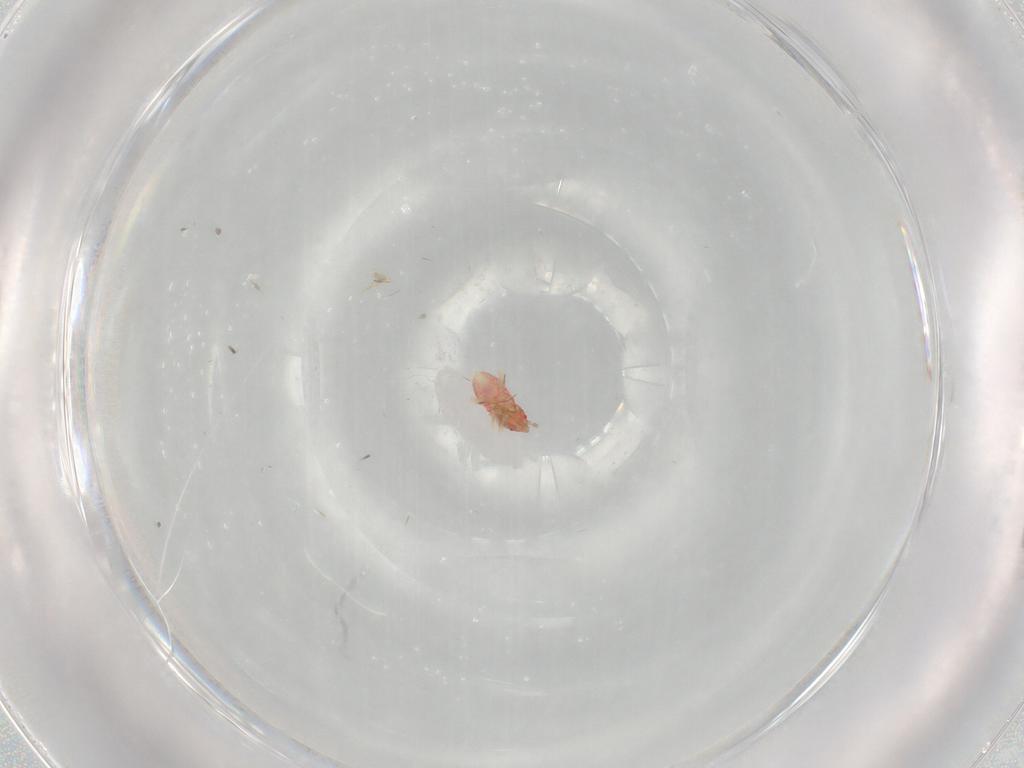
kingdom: Animalia
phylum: Arthropoda
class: Insecta
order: Hemiptera
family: Anthocoridae
